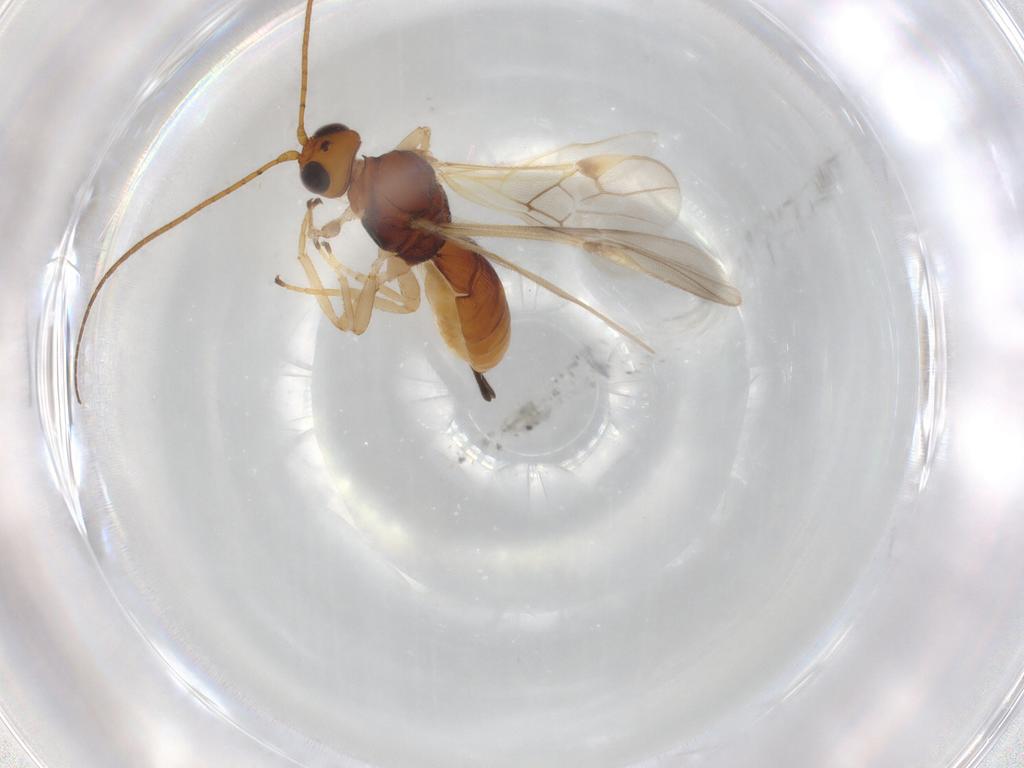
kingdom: Animalia
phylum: Arthropoda
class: Insecta
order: Hymenoptera
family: Braconidae
